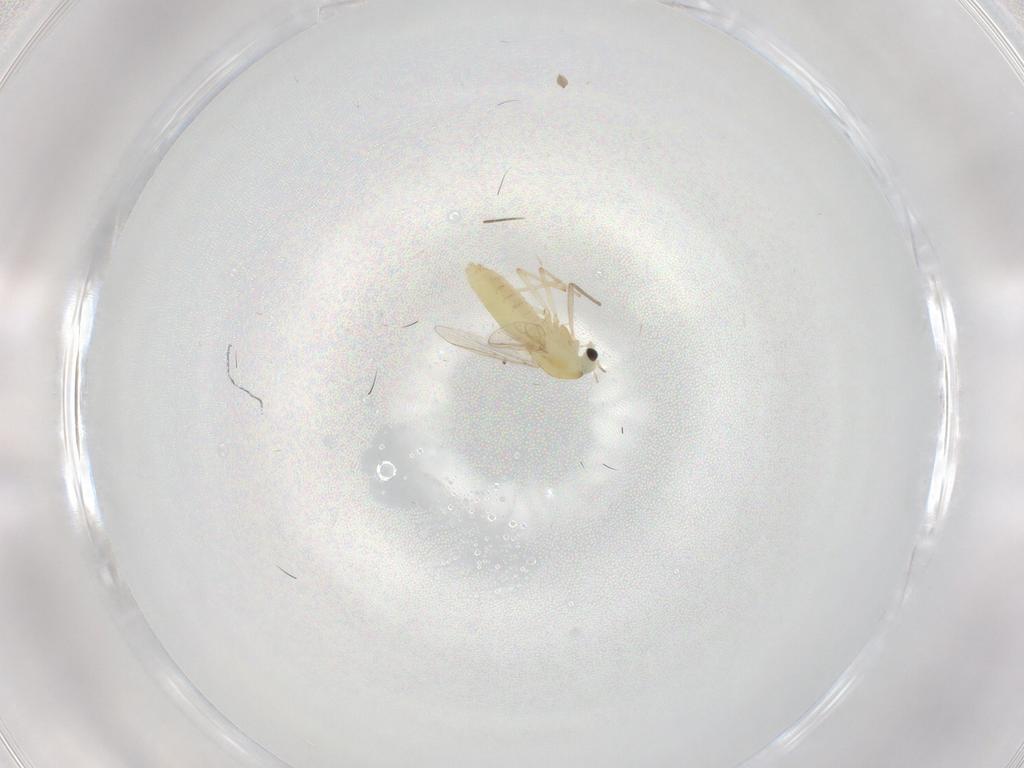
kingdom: Animalia
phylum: Arthropoda
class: Insecta
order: Diptera
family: Chironomidae
